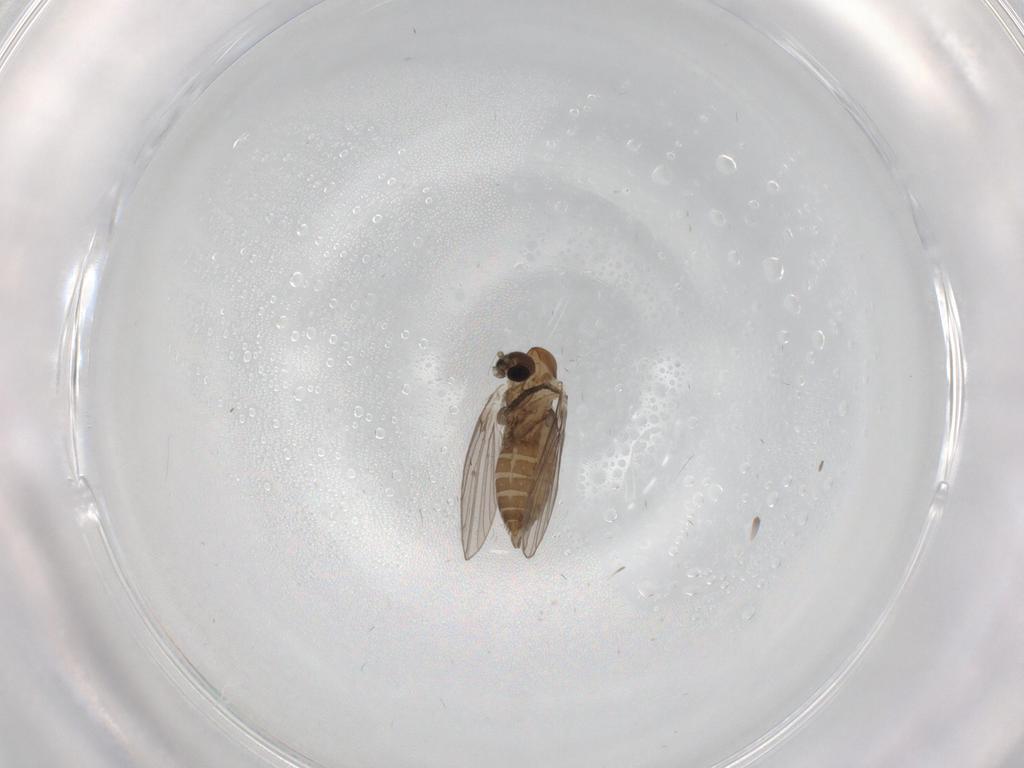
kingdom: Animalia
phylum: Arthropoda
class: Insecta
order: Diptera
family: Psychodidae
